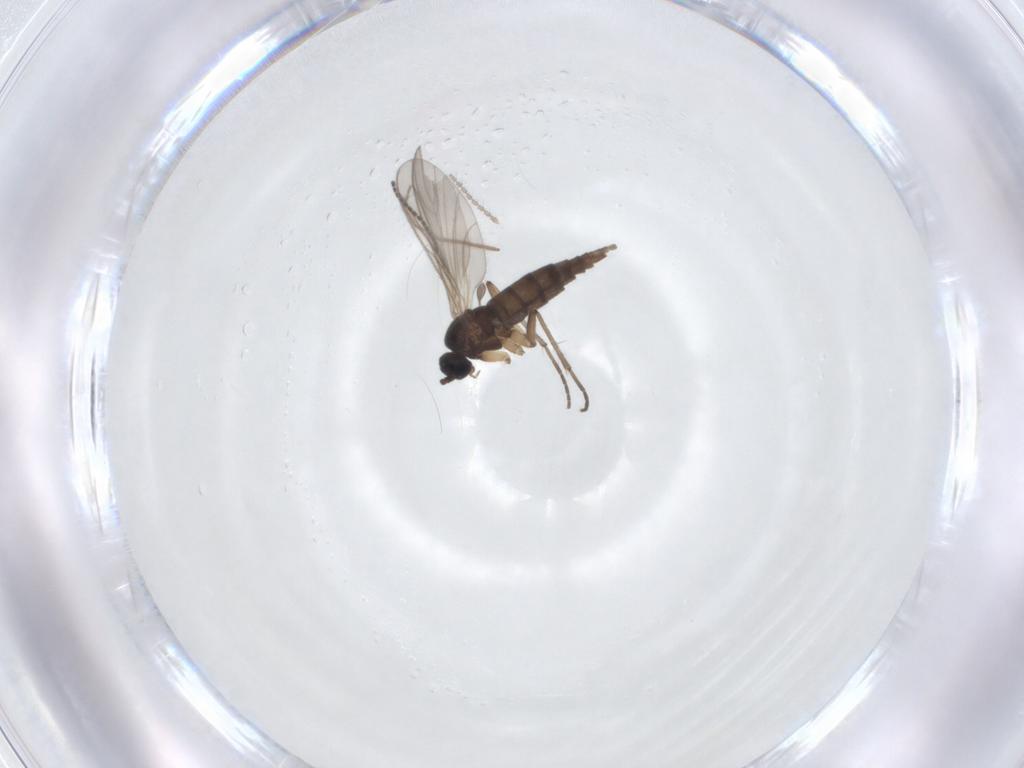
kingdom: Animalia
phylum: Arthropoda
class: Insecta
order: Diptera
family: Sciaridae
